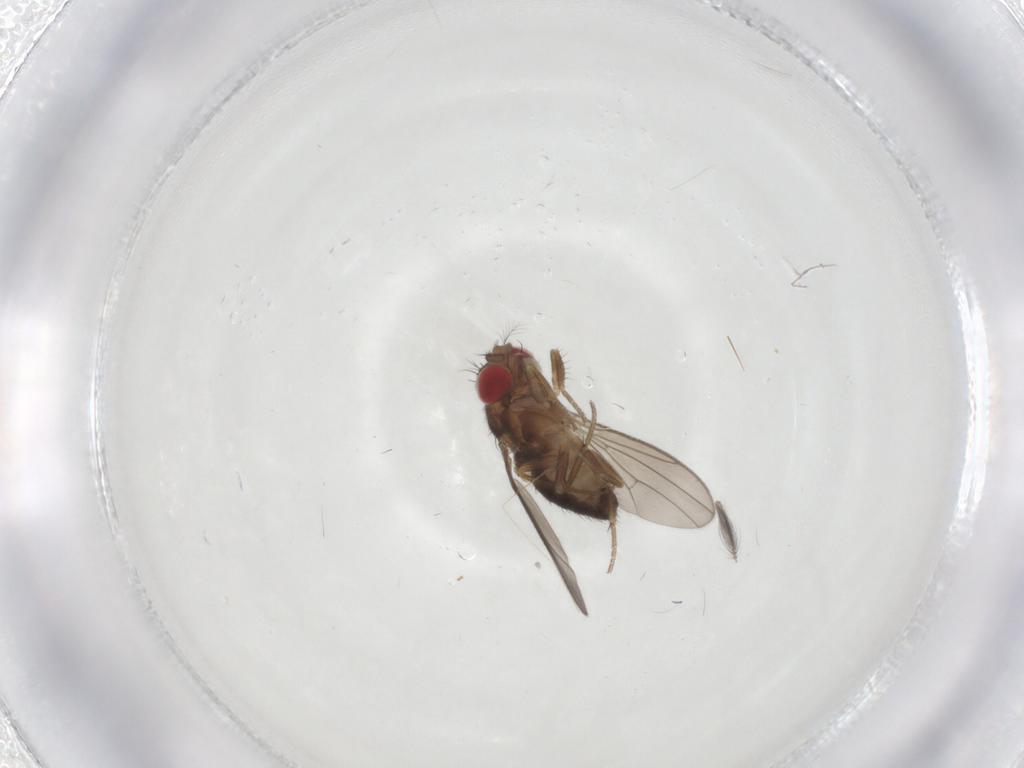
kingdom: Animalia
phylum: Arthropoda
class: Insecta
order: Diptera
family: Drosophilidae
